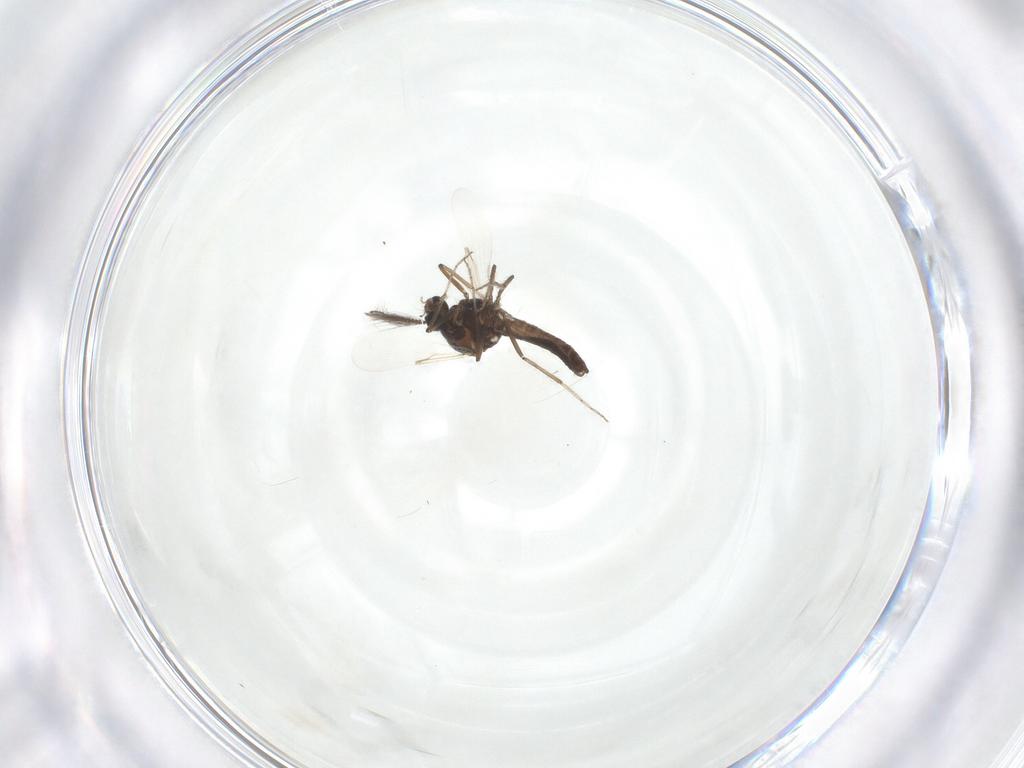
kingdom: Animalia
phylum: Arthropoda
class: Insecta
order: Diptera
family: Ceratopogonidae
